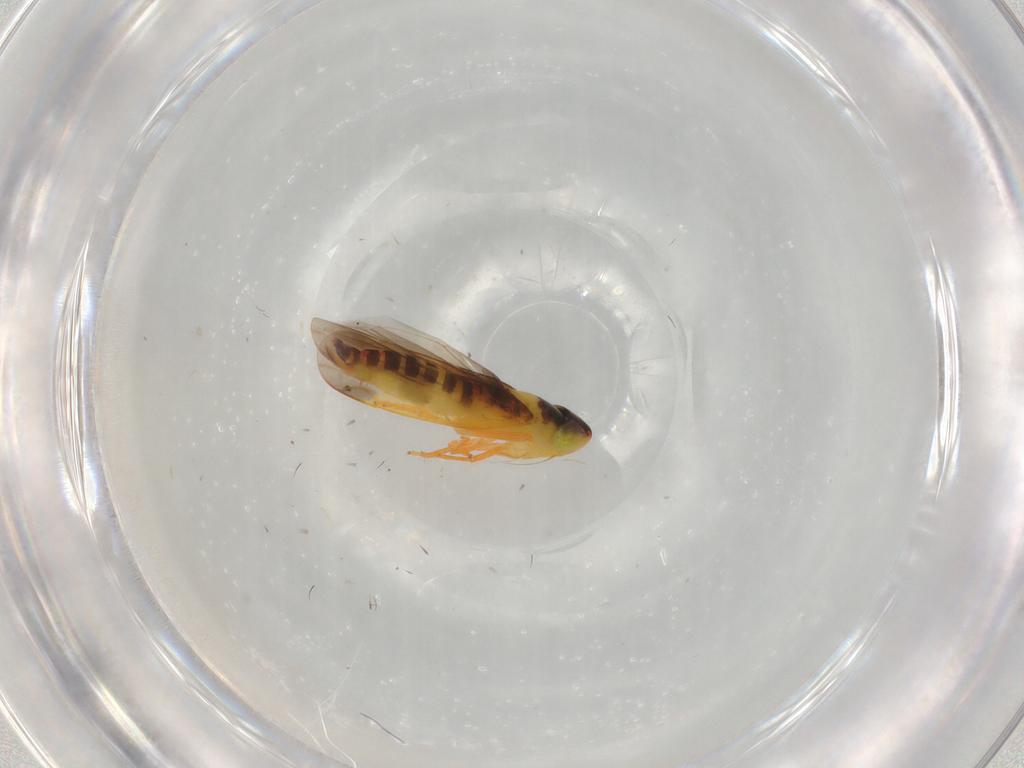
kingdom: Animalia
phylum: Arthropoda
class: Insecta
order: Hemiptera
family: Cicadellidae
